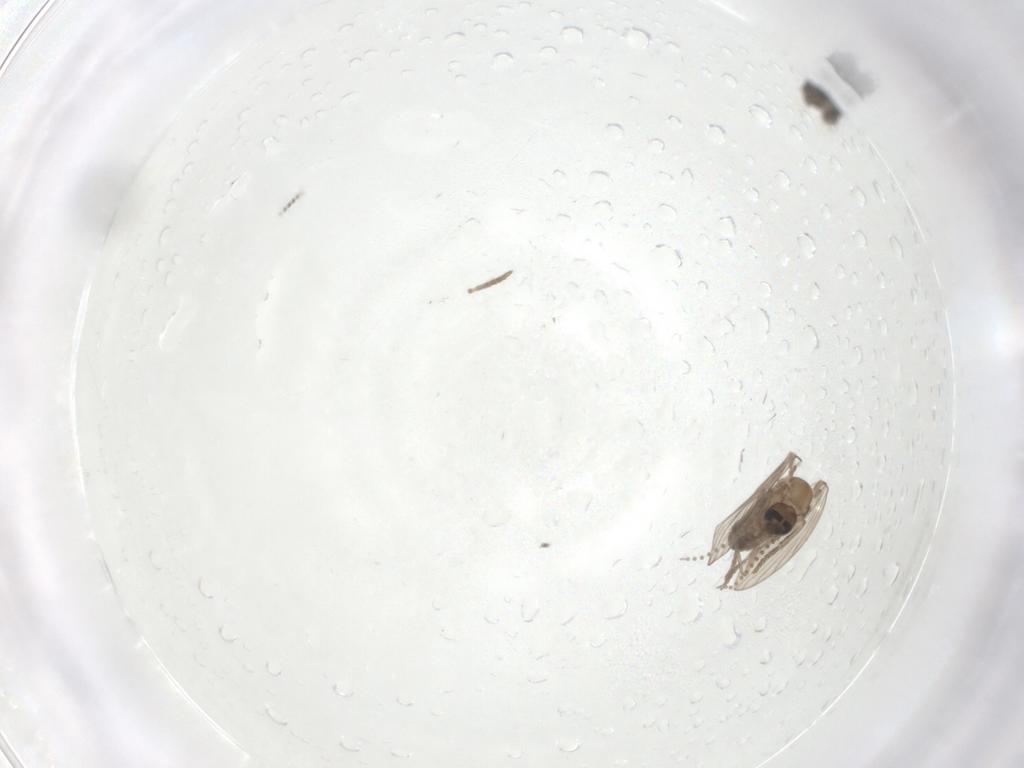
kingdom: Animalia
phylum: Arthropoda
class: Insecta
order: Diptera
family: Psychodidae
